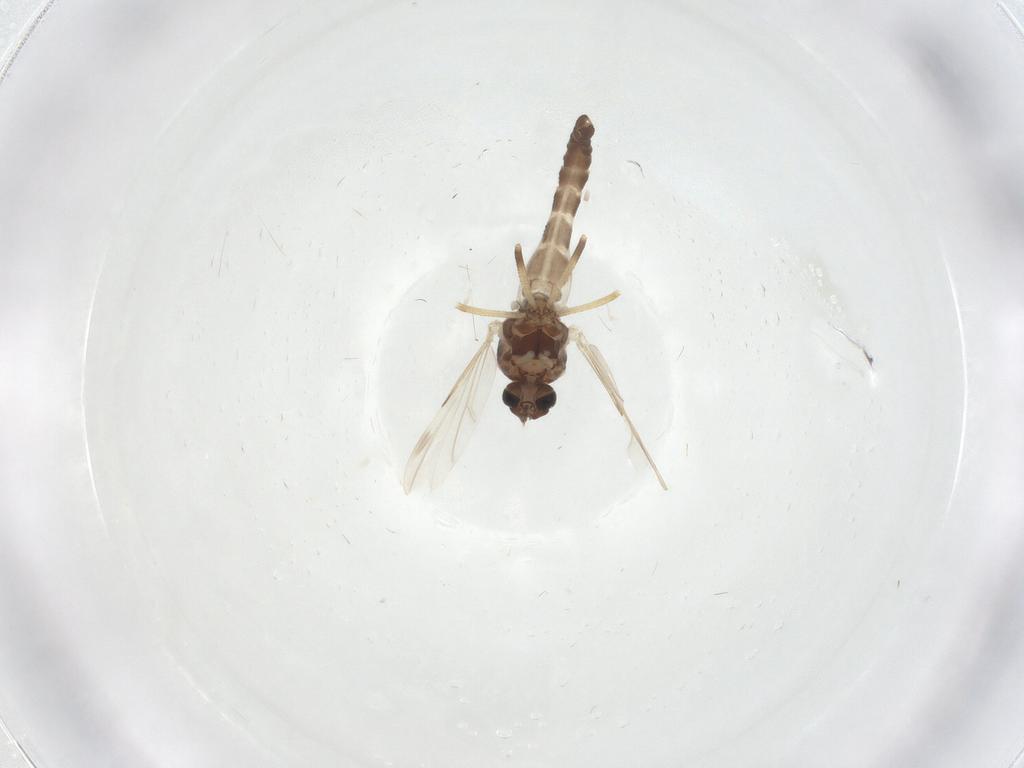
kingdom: Animalia
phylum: Arthropoda
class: Insecta
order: Diptera
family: Ceratopogonidae
